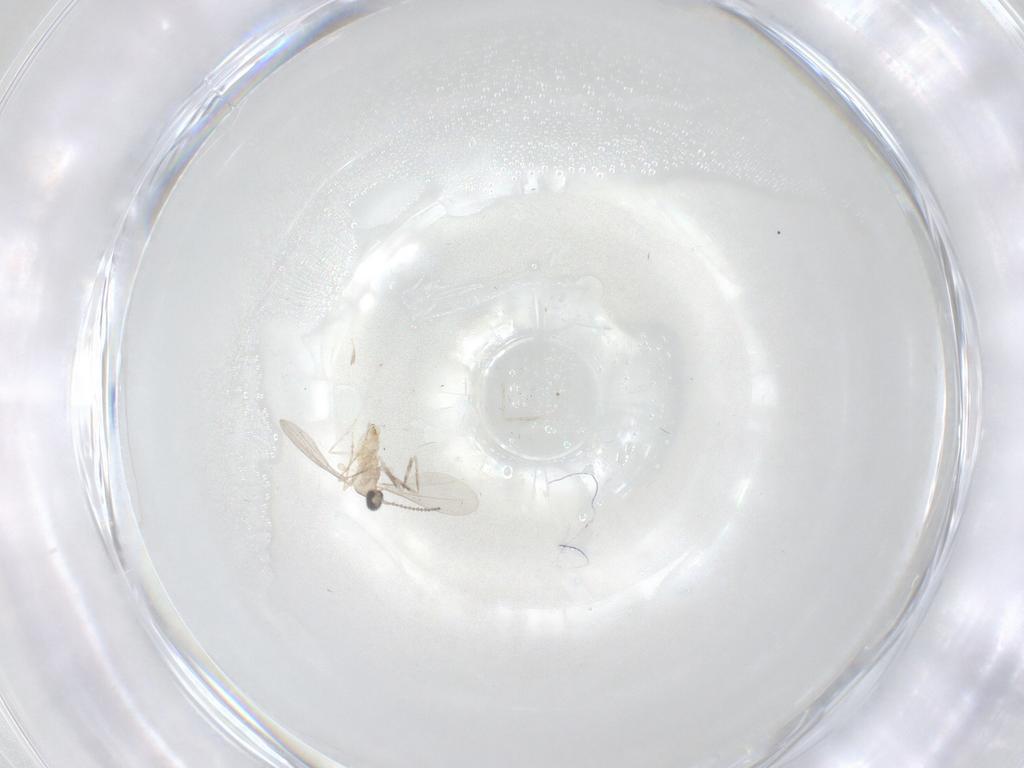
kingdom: Animalia
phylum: Arthropoda
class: Insecta
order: Diptera
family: Cecidomyiidae
